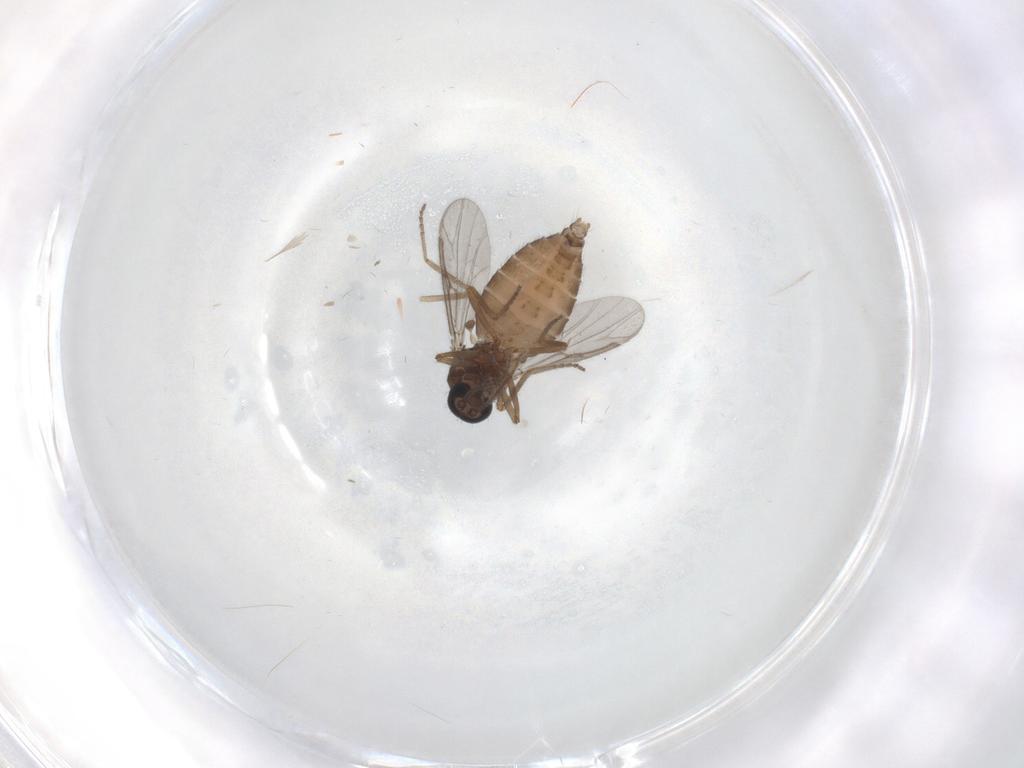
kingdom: Animalia
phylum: Arthropoda
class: Insecta
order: Diptera
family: Ceratopogonidae
